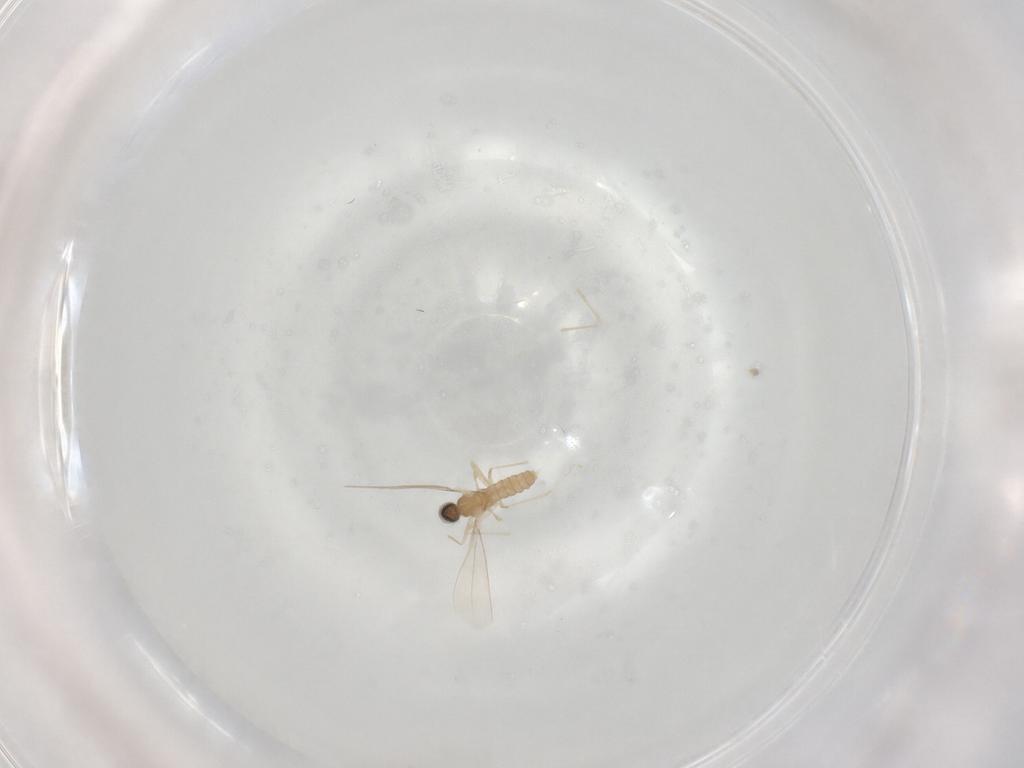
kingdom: Animalia
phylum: Arthropoda
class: Insecta
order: Diptera
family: Cecidomyiidae
